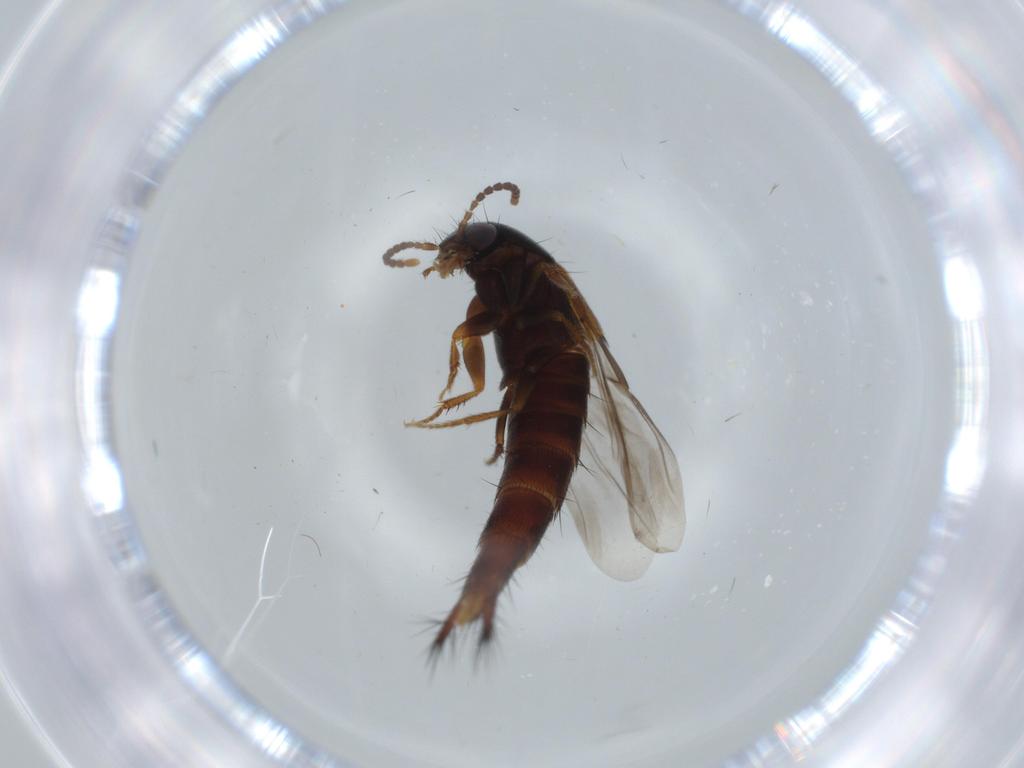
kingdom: Animalia
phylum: Arthropoda
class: Insecta
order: Coleoptera
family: Staphylinidae
